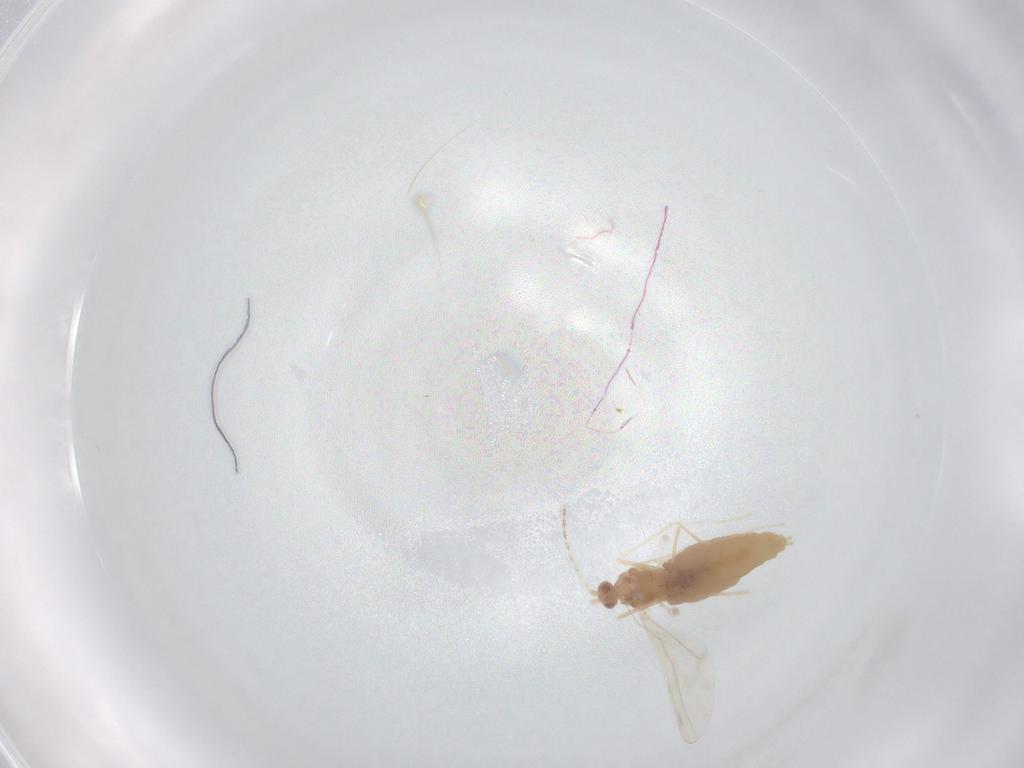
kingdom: Animalia
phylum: Arthropoda
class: Insecta
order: Diptera
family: Cecidomyiidae
